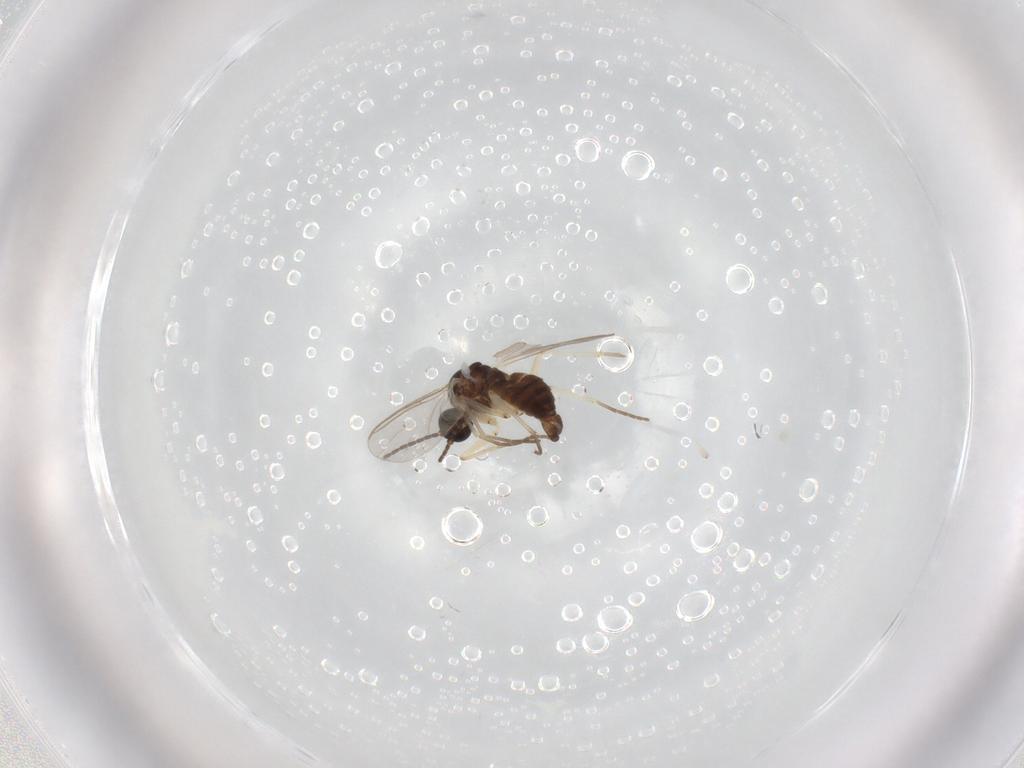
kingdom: Animalia
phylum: Arthropoda
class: Insecta
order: Diptera
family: Sciaridae
